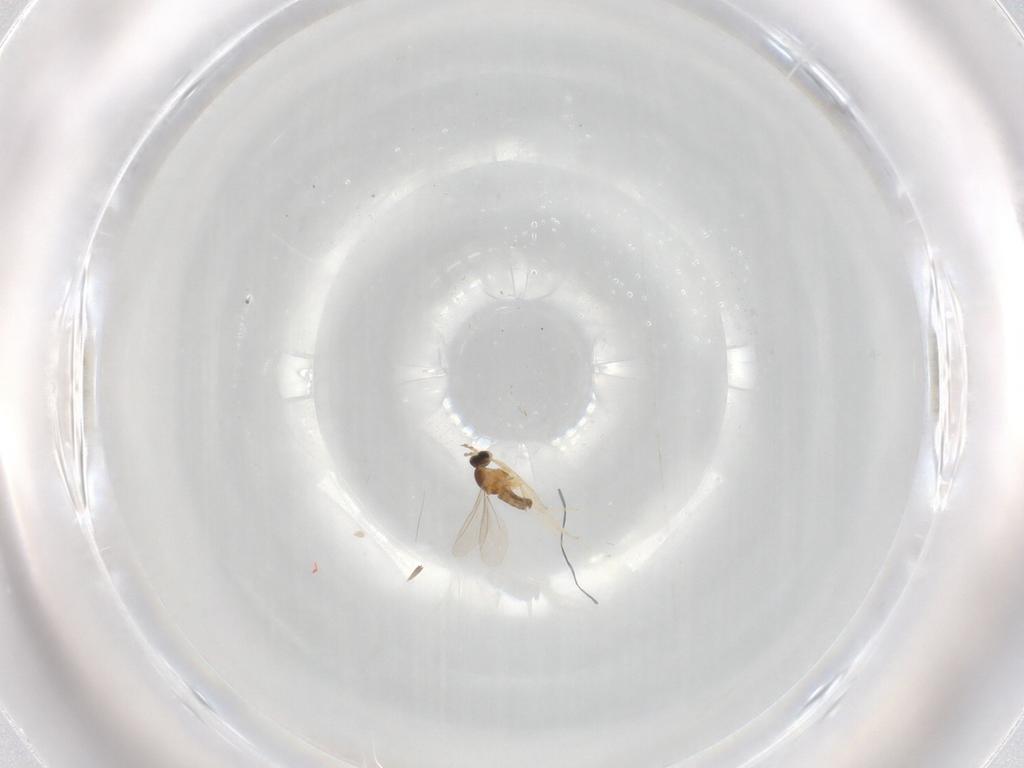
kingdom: Animalia
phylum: Arthropoda
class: Insecta
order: Diptera
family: Cecidomyiidae
